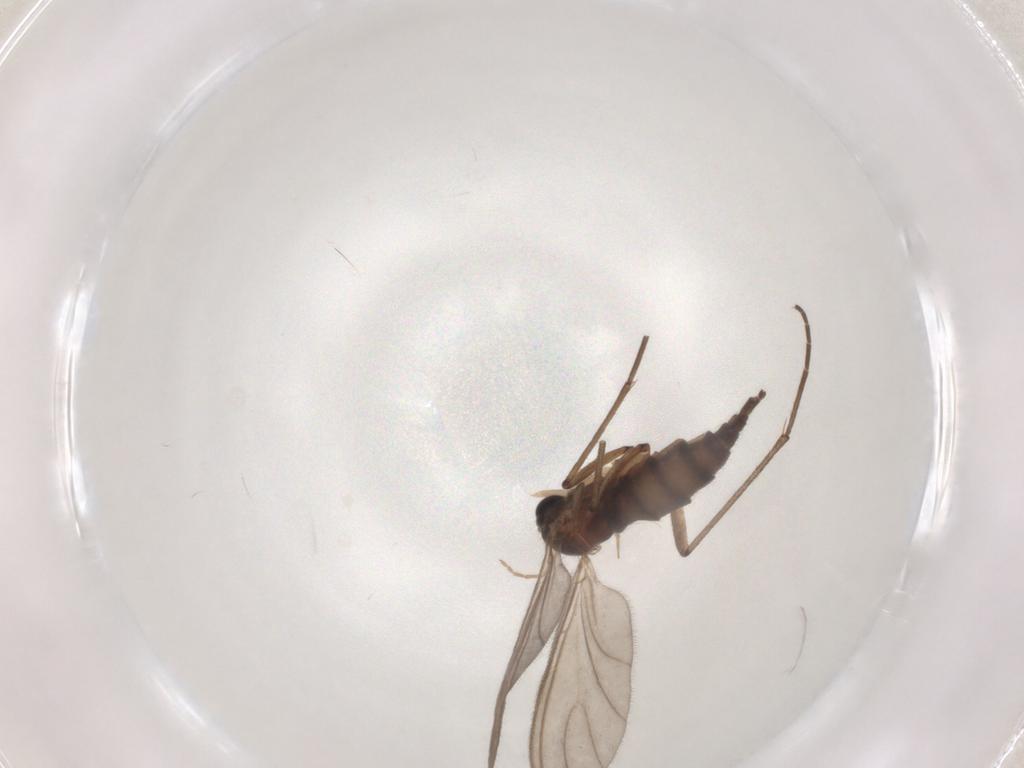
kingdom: Animalia
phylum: Arthropoda
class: Insecta
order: Diptera
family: Sciaridae
